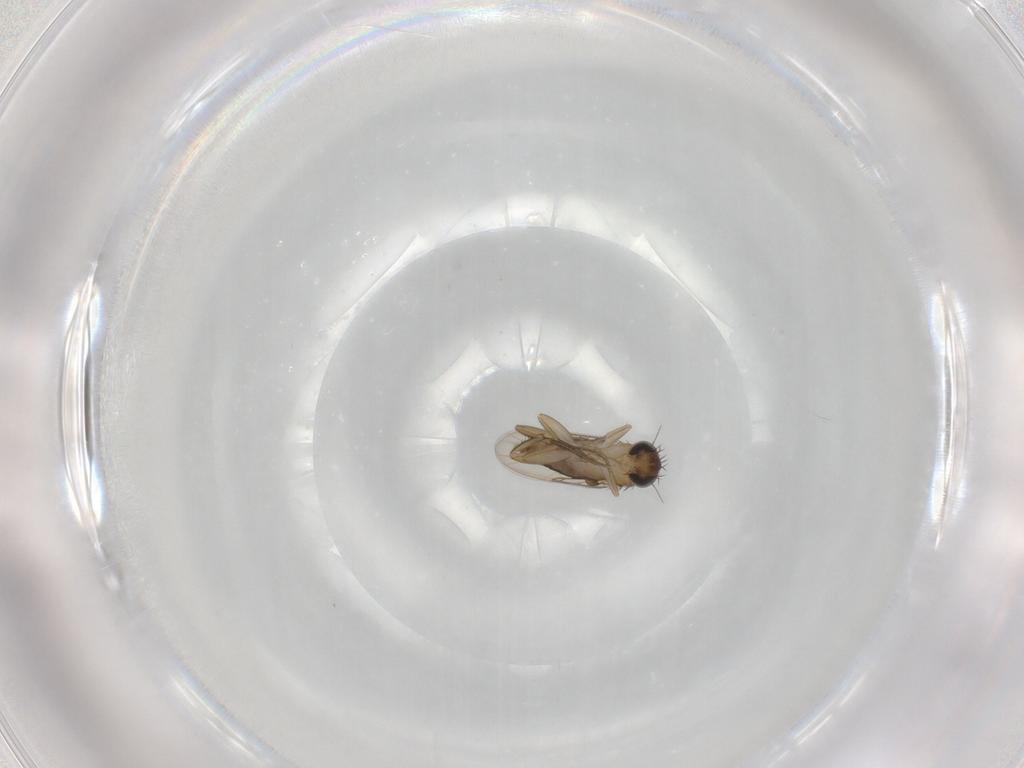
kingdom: Animalia
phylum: Arthropoda
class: Insecta
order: Diptera
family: Phoridae
